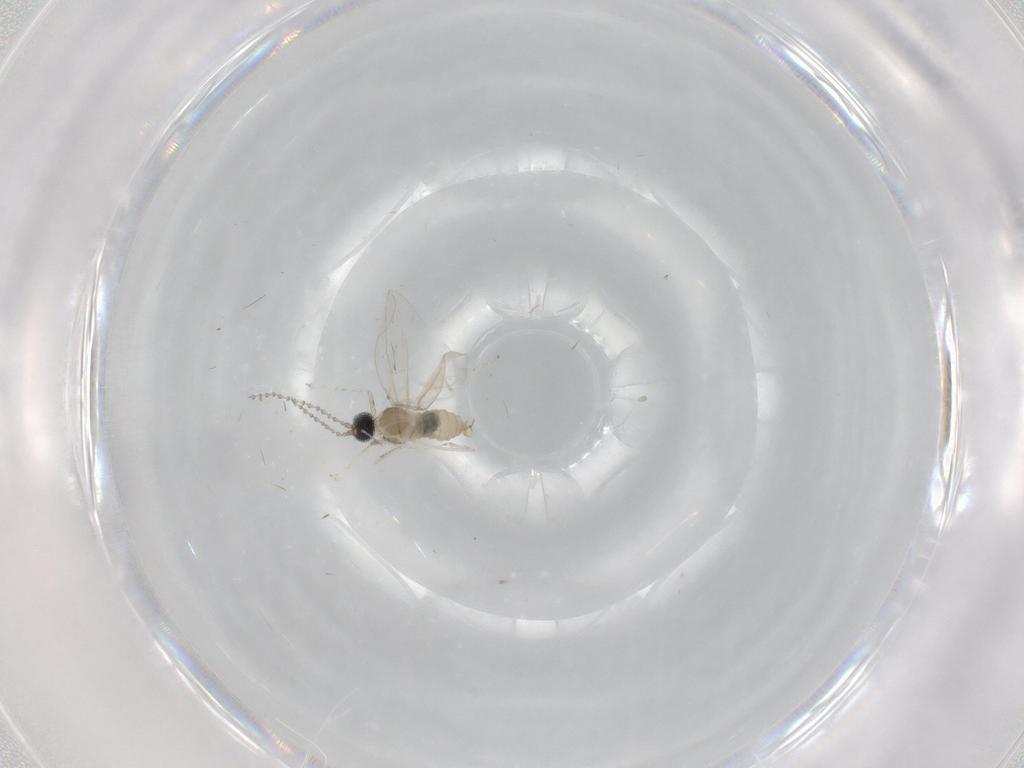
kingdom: Animalia
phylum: Arthropoda
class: Insecta
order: Diptera
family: Cecidomyiidae
